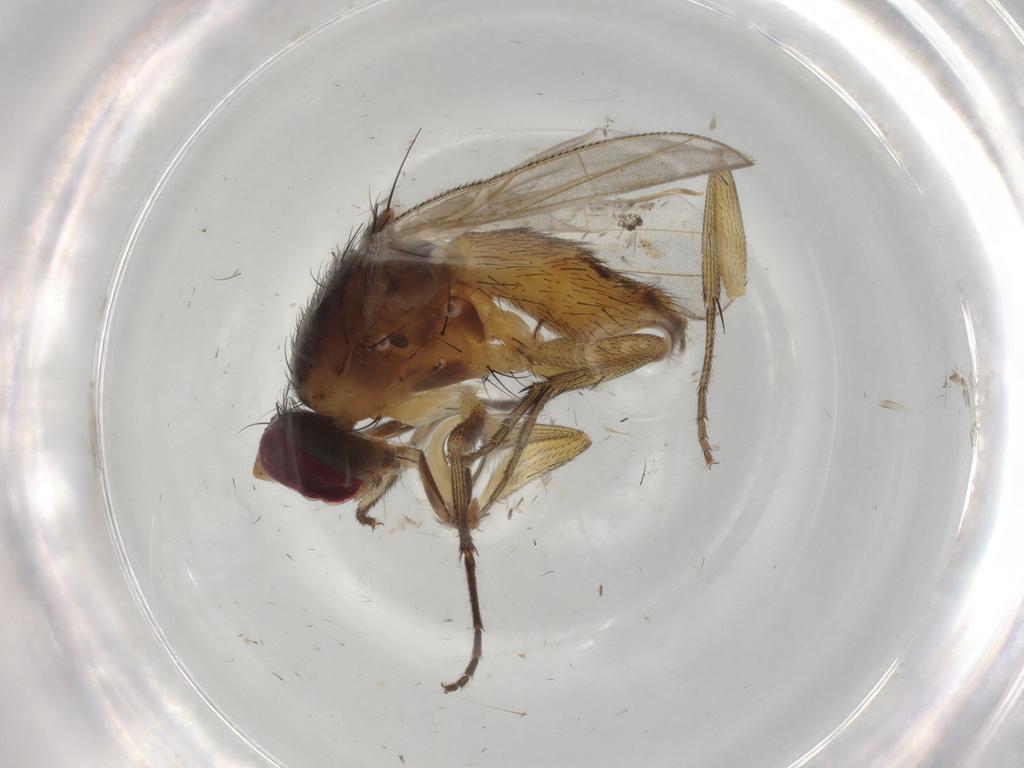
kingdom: Animalia
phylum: Arthropoda
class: Insecta
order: Diptera
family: Muscidae
